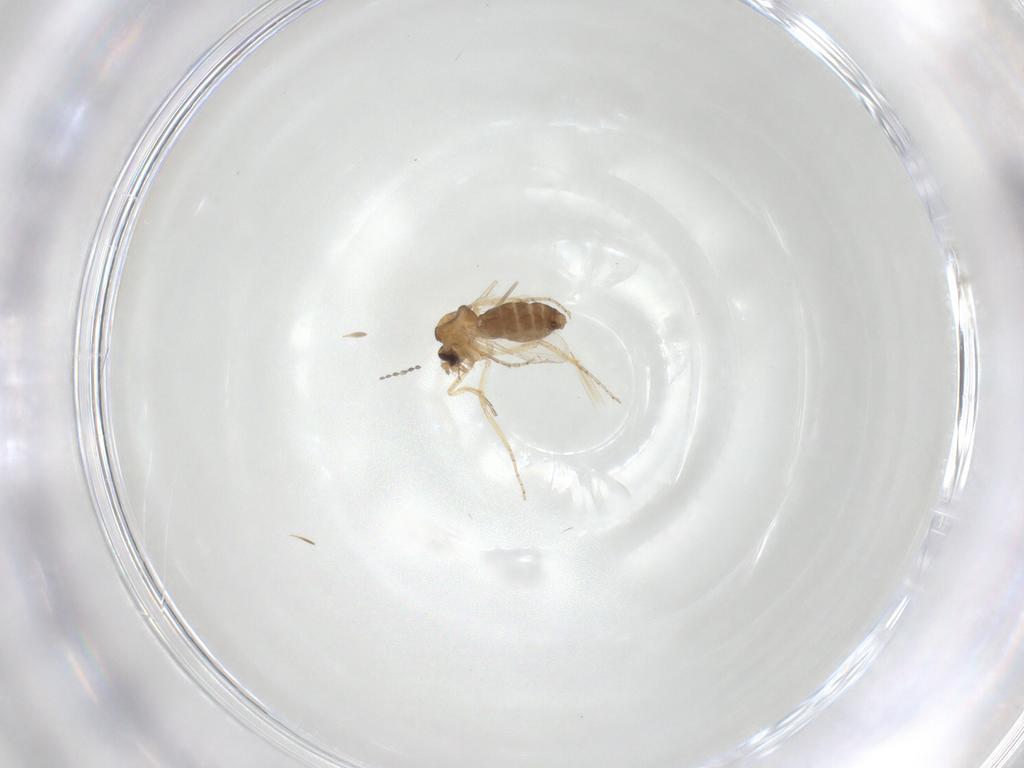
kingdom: Animalia
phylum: Arthropoda
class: Insecta
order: Diptera
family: Ceratopogonidae
